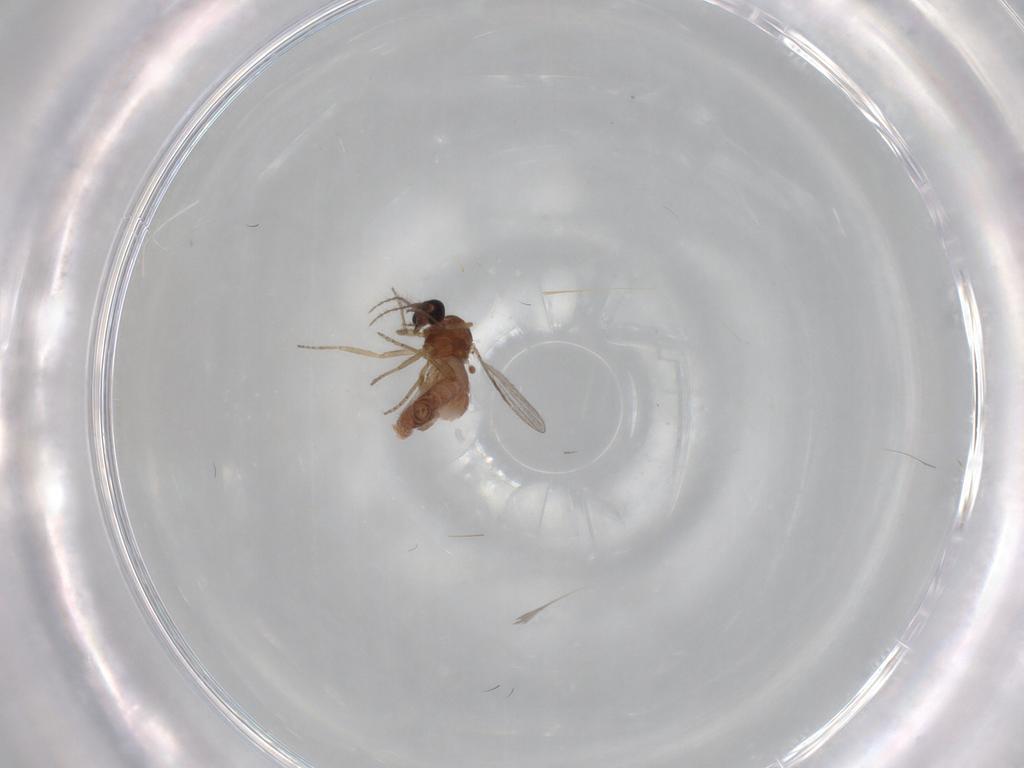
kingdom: Animalia
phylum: Arthropoda
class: Insecta
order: Diptera
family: Ceratopogonidae
